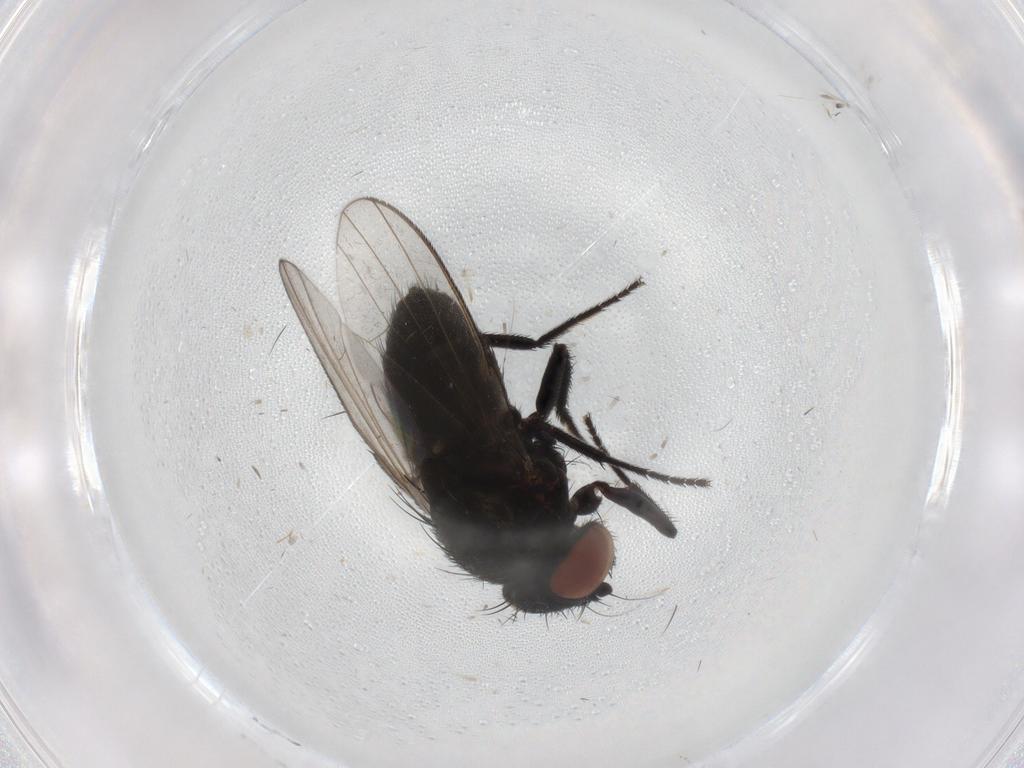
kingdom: Animalia
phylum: Arthropoda
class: Insecta
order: Diptera
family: Milichiidae
